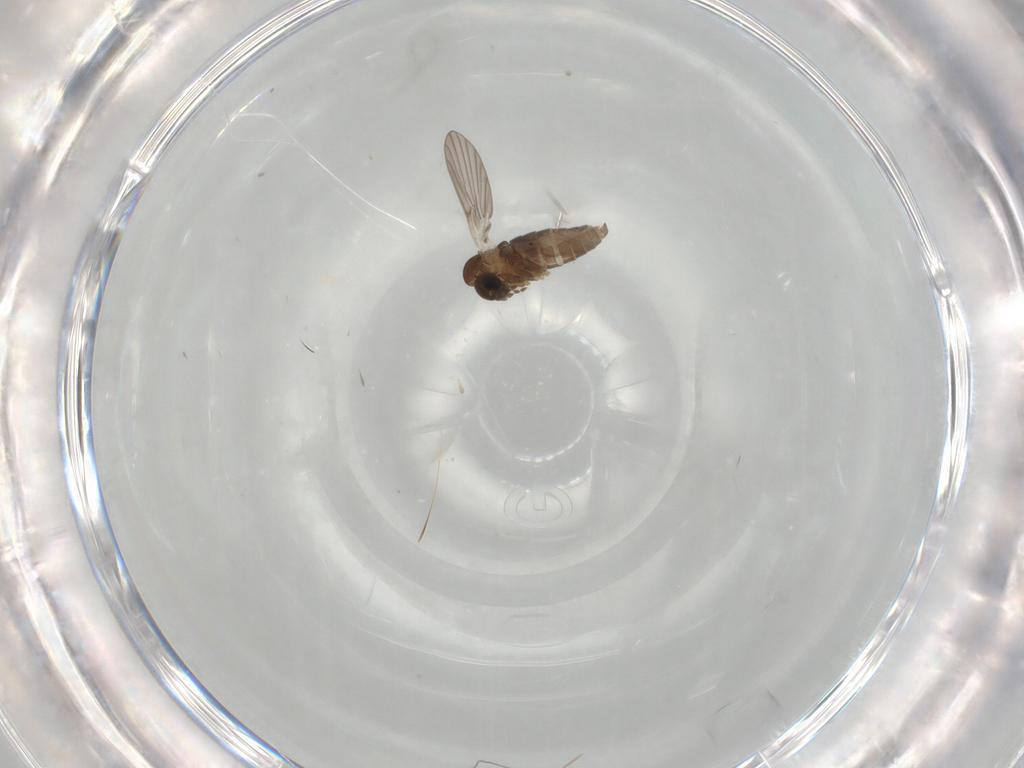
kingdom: Animalia
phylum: Arthropoda
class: Insecta
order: Diptera
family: Psychodidae
